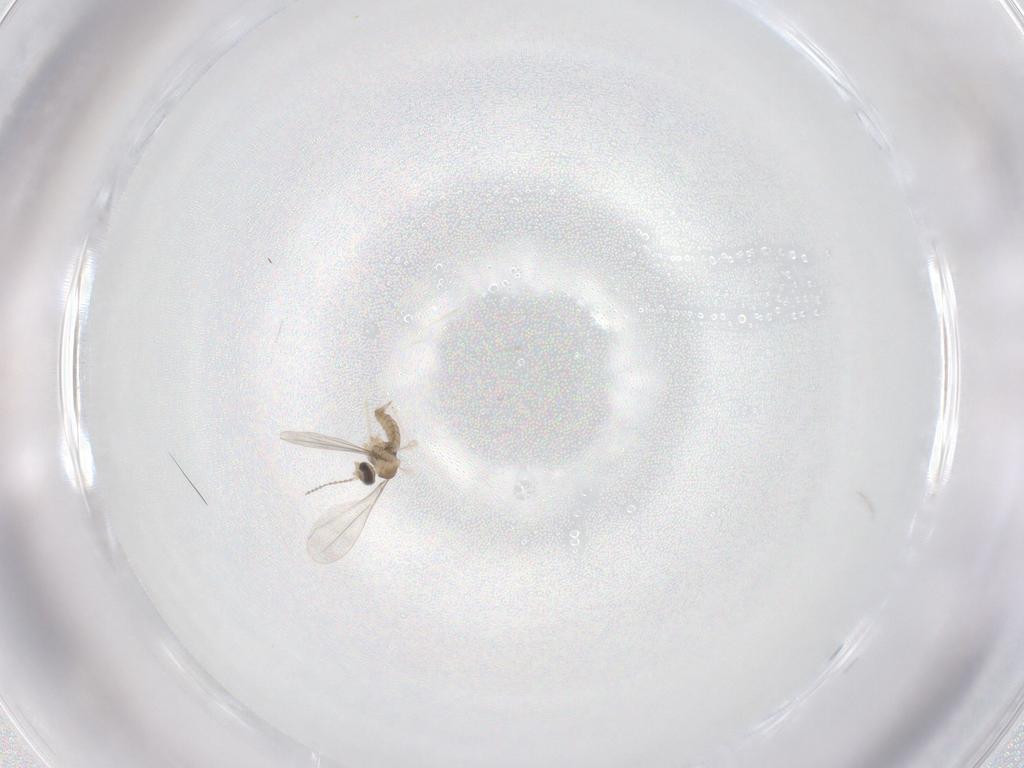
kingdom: Animalia
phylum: Arthropoda
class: Insecta
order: Diptera
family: Cecidomyiidae
